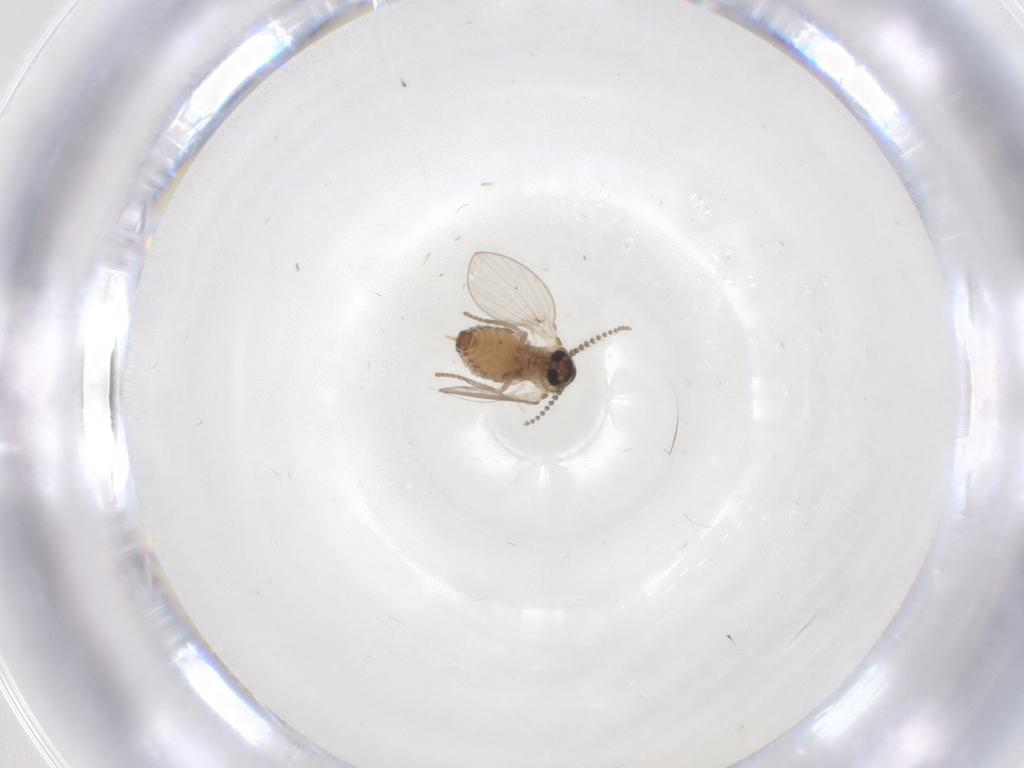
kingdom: Animalia
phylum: Arthropoda
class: Insecta
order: Diptera
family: Psychodidae
